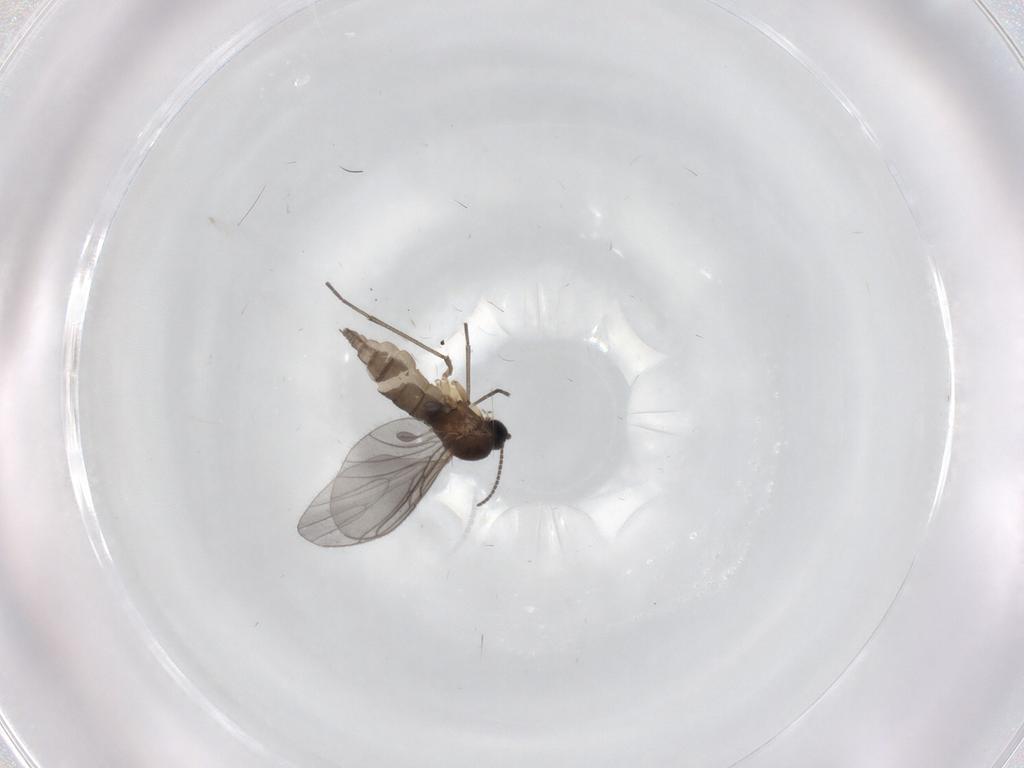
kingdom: Animalia
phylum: Arthropoda
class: Insecta
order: Diptera
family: Sciaridae
